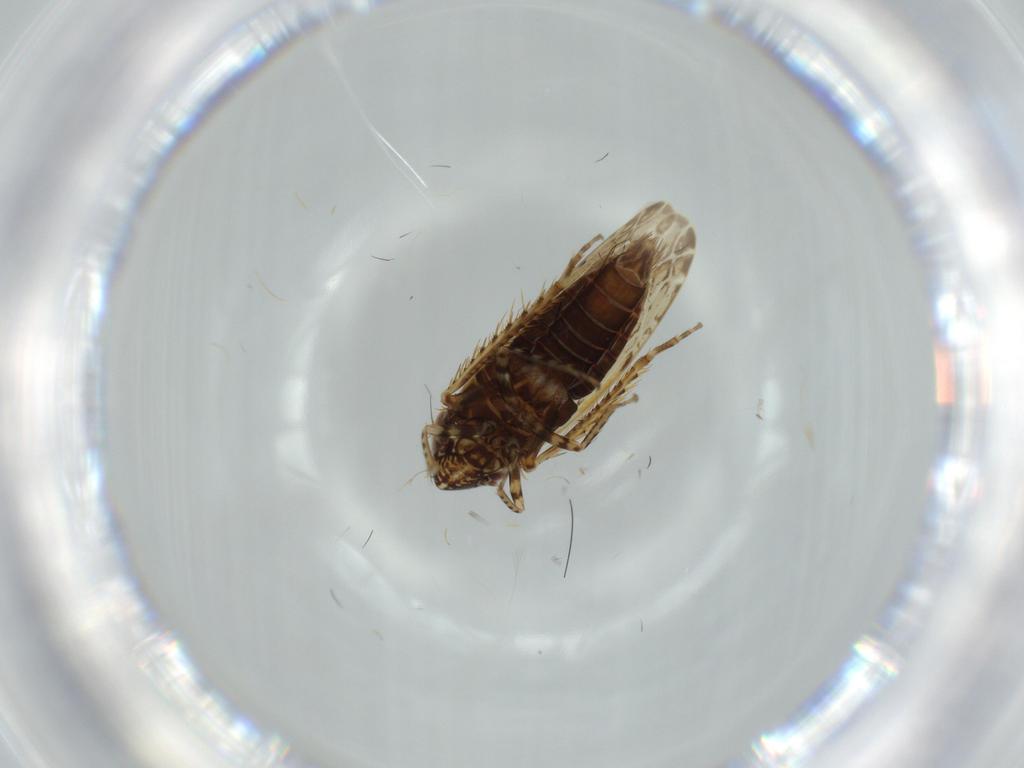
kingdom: Animalia
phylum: Arthropoda
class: Insecta
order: Hemiptera
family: Cicadellidae
